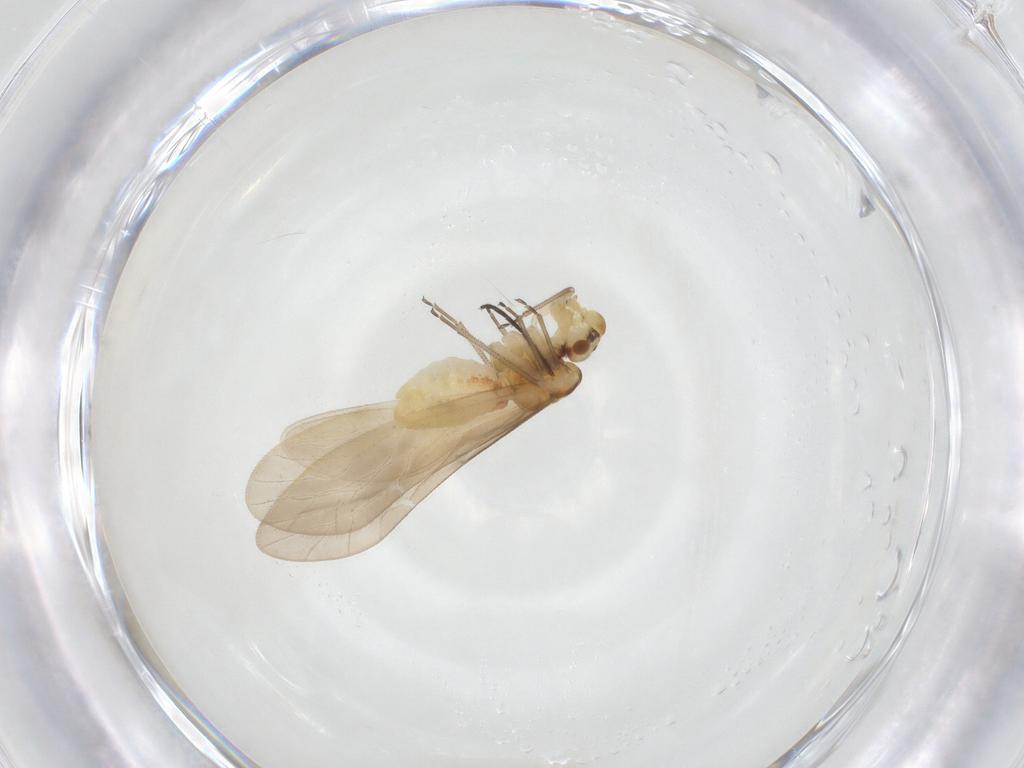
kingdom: Animalia
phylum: Arthropoda
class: Insecta
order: Psocodea
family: Caeciliusidae
